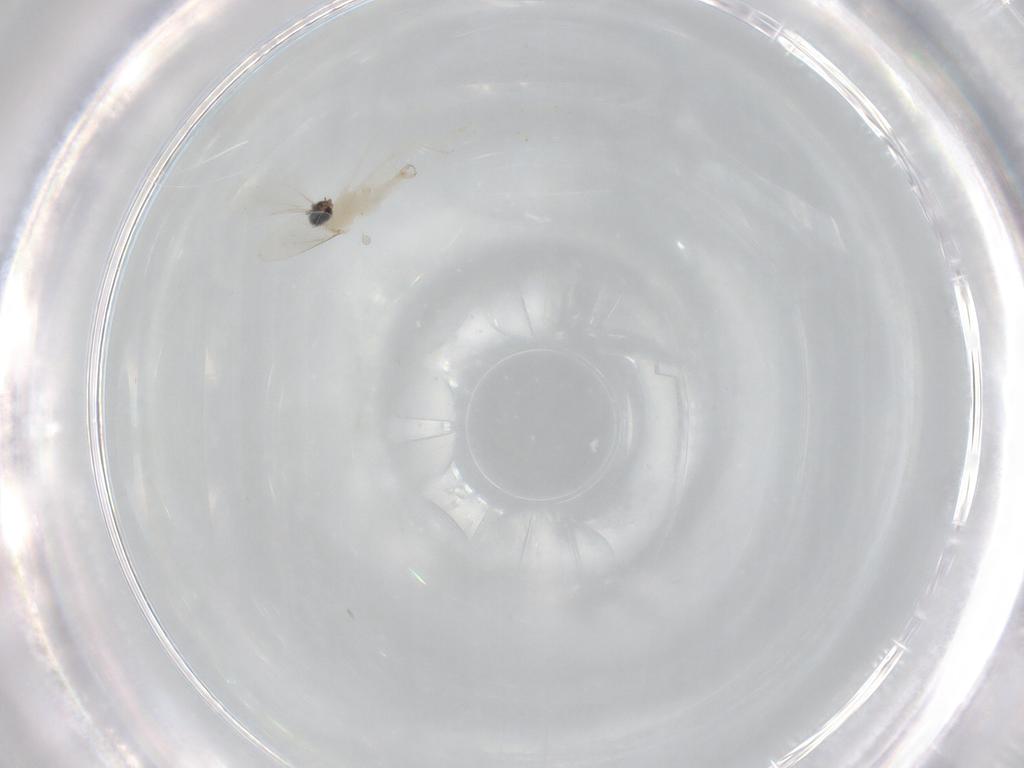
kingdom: Animalia
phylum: Arthropoda
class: Insecta
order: Diptera
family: Cecidomyiidae
